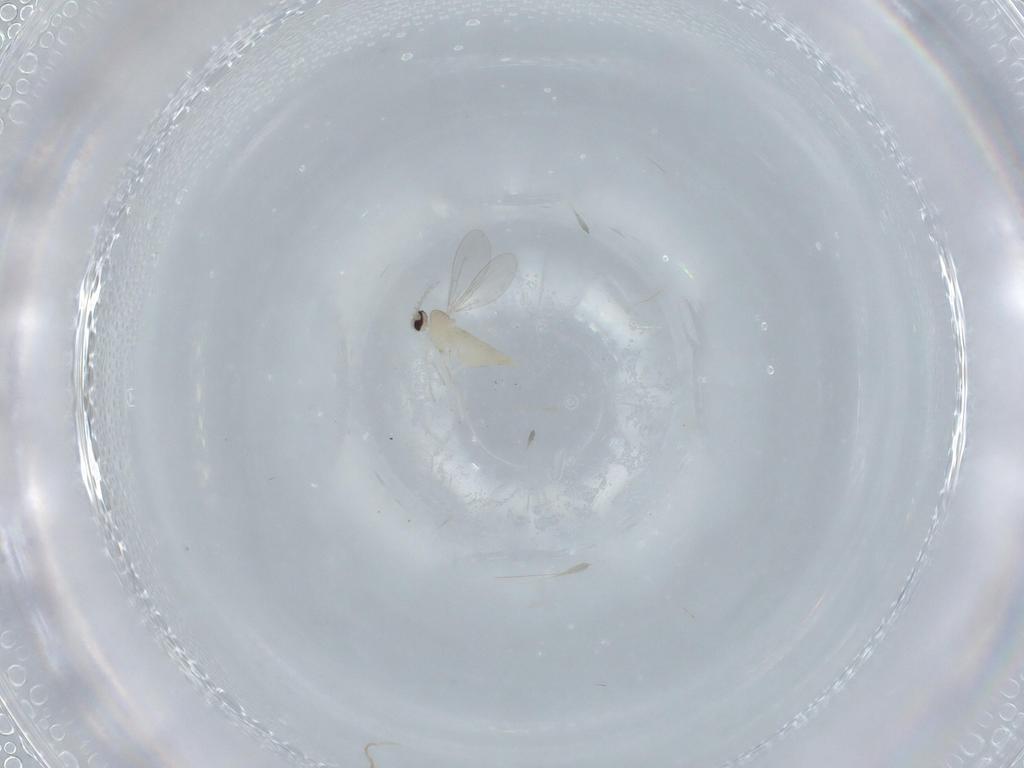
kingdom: Animalia
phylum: Arthropoda
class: Insecta
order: Diptera
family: Cecidomyiidae
